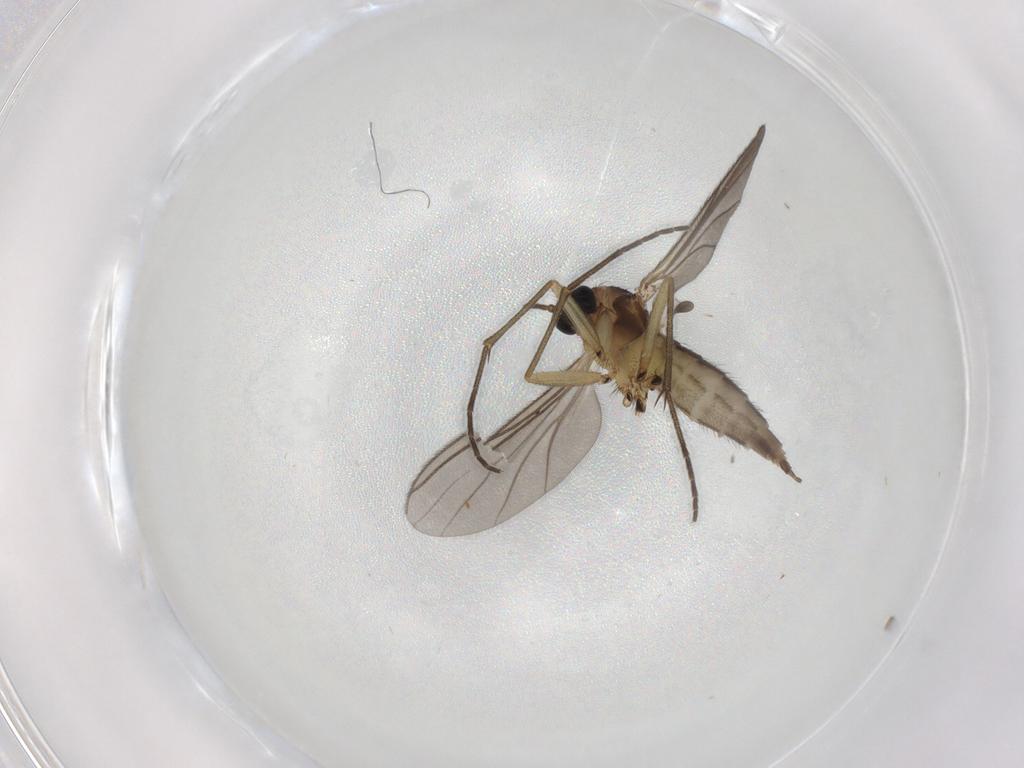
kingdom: Animalia
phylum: Arthropoda
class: Insecta
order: Diptera
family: Sciaridae
